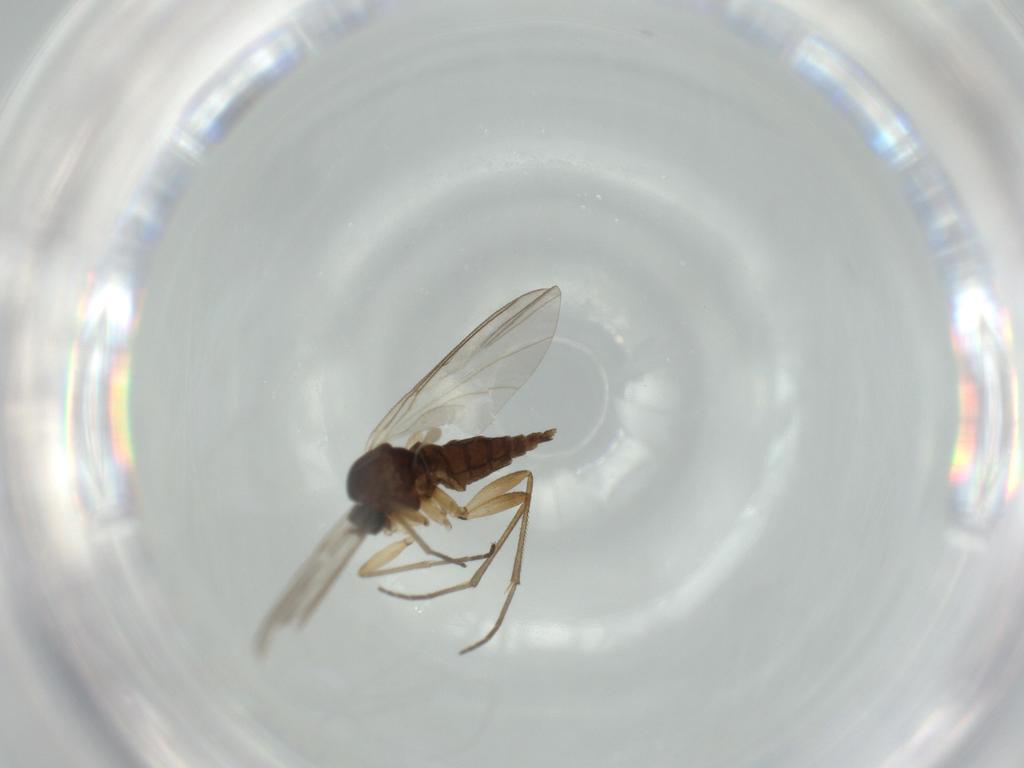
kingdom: Animalia
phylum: Arthropoda
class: Insecta
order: Diptera
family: Sciaridae
